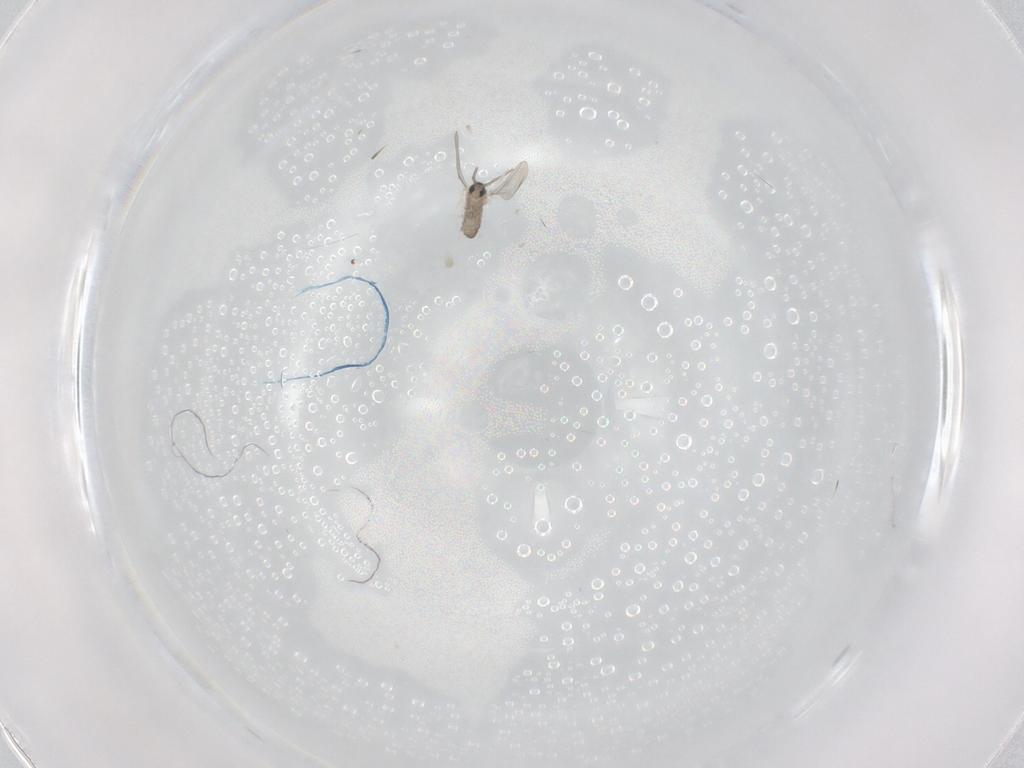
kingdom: Animalia
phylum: Arthropoda
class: Insecta
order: Diptera
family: Cecidomyiidae
